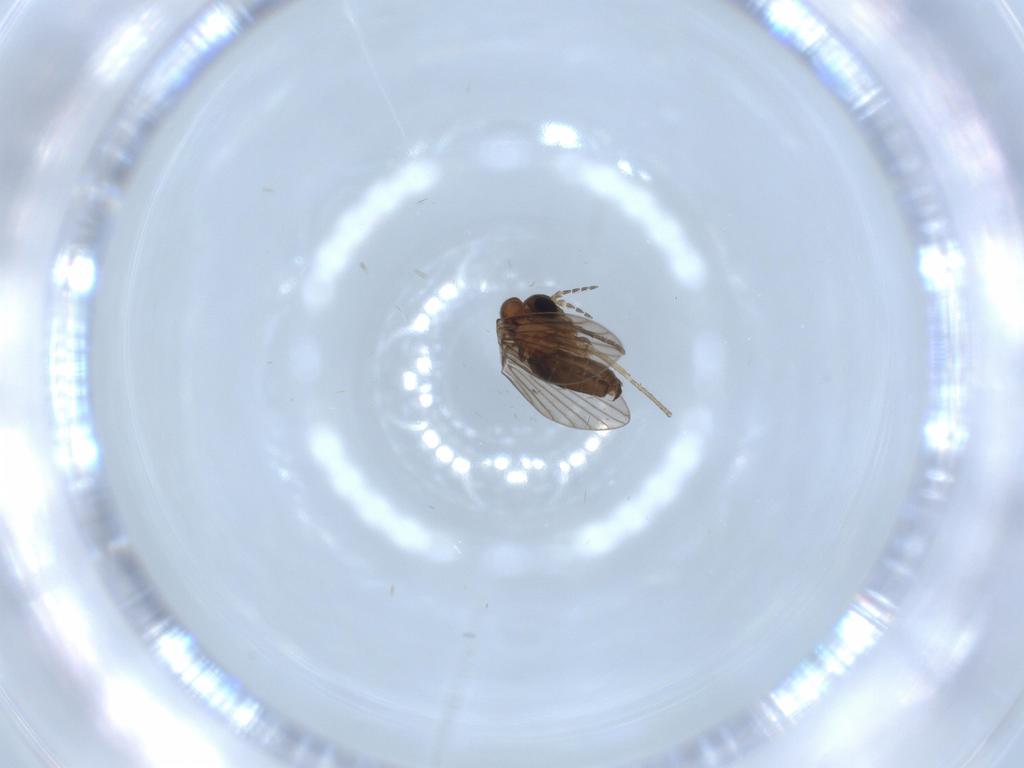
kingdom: Animalia
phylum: Arthropoda
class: Insecta
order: Diptera
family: Psychodidae
